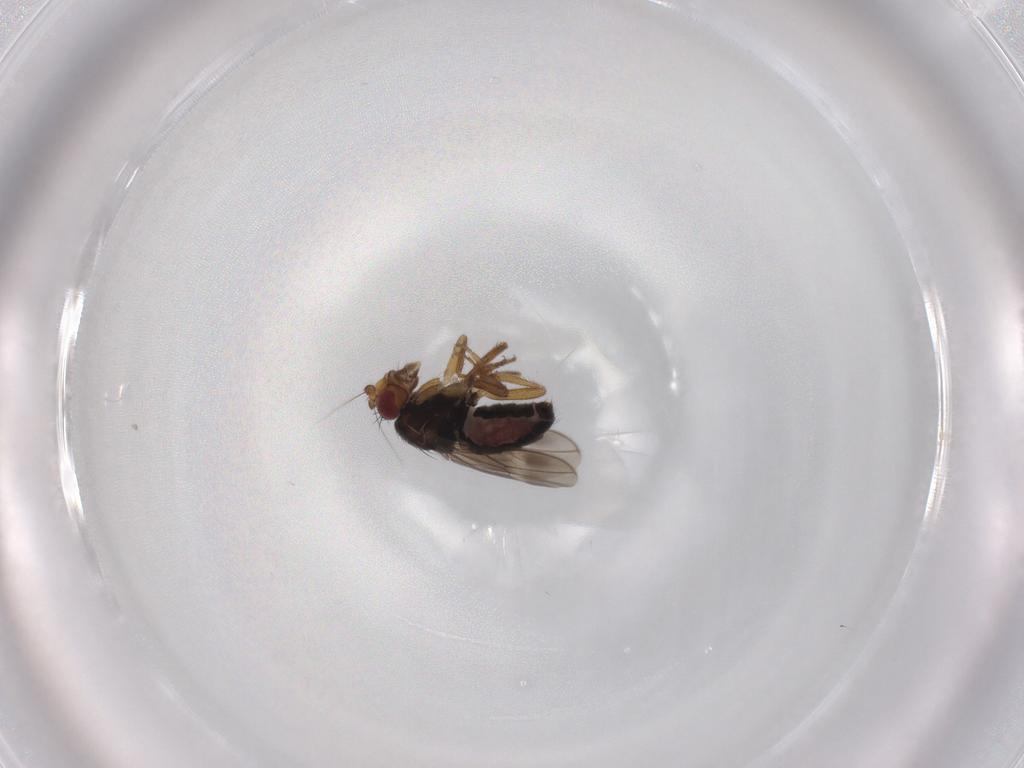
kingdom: Animalia
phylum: Arthropoda
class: Insecta
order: Diptera
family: Sphaeroceridae
